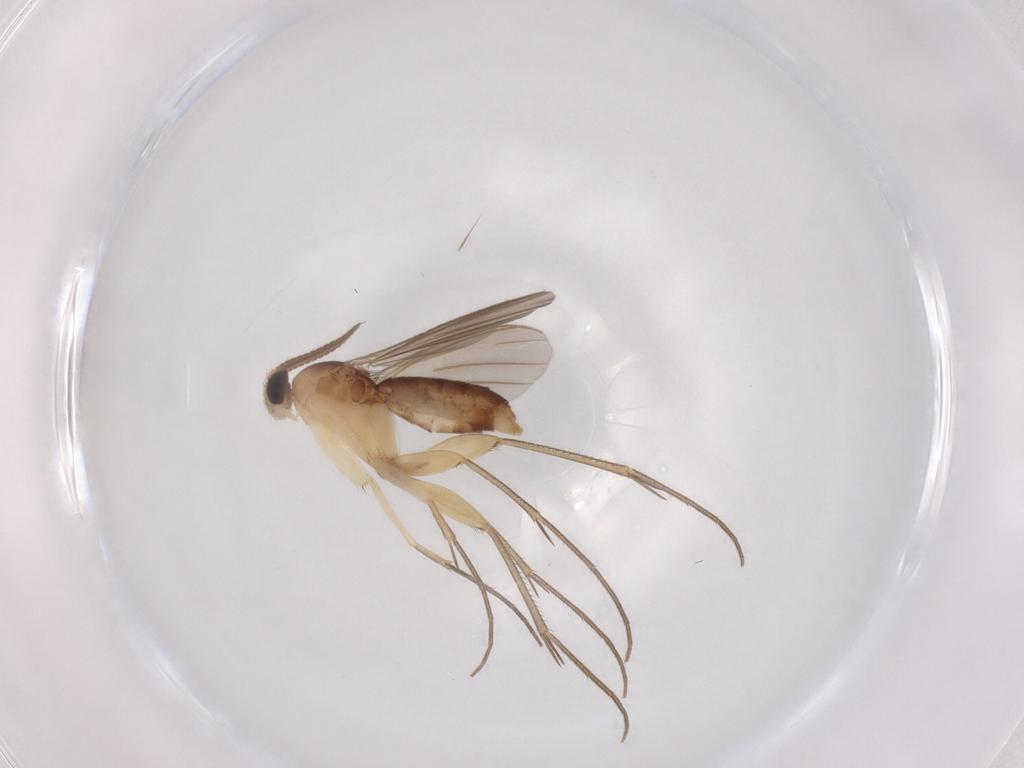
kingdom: Animalia
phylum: Arthropoda
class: Insecta
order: Diptera
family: Mycetophilidae
